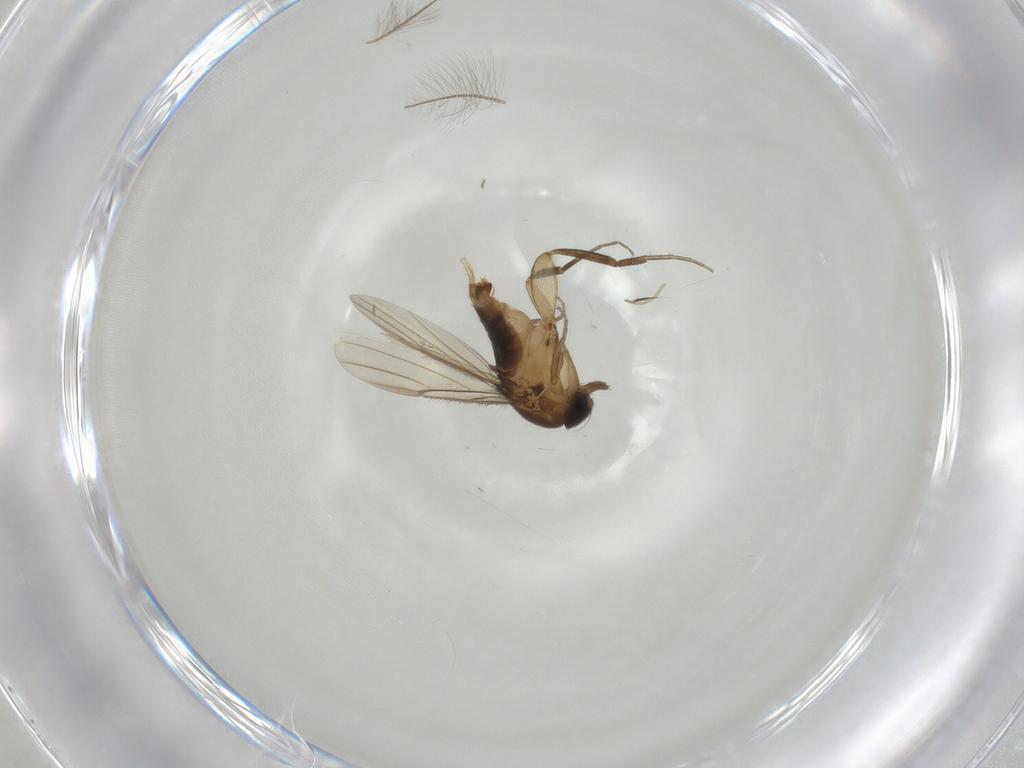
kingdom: Animalia
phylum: Arthropoda
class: Insecta
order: Diptera
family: Phoridae
